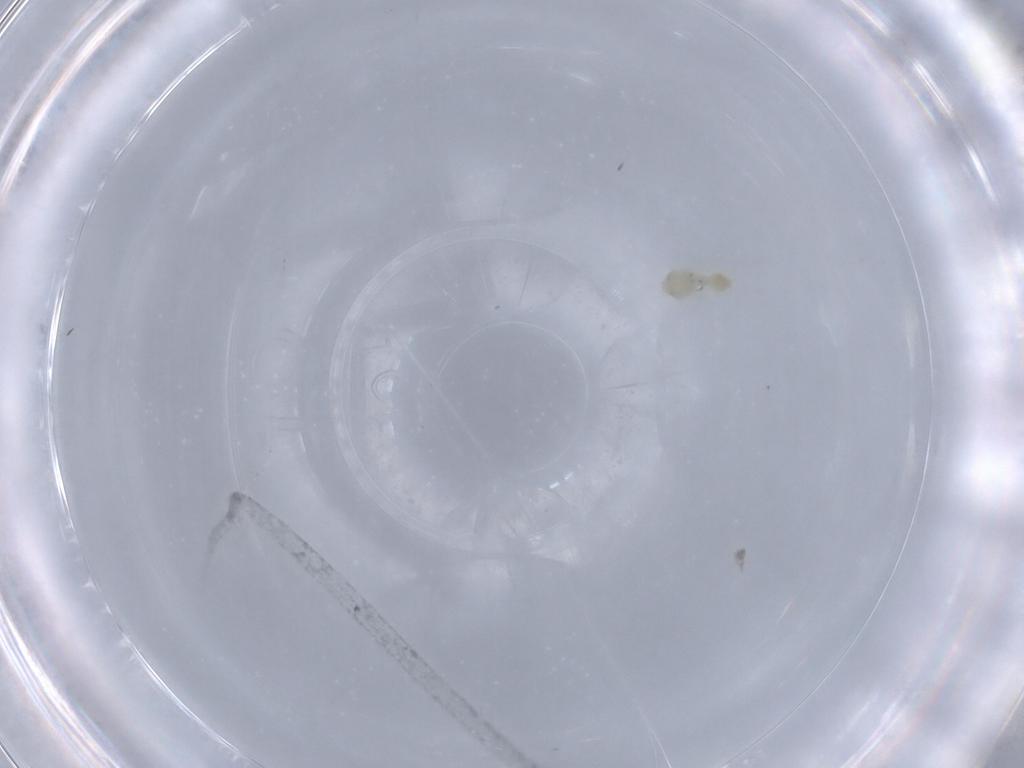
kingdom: Animalia
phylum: Arthropoda
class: Insecta
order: Hemiptera
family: Aleyrodidae
